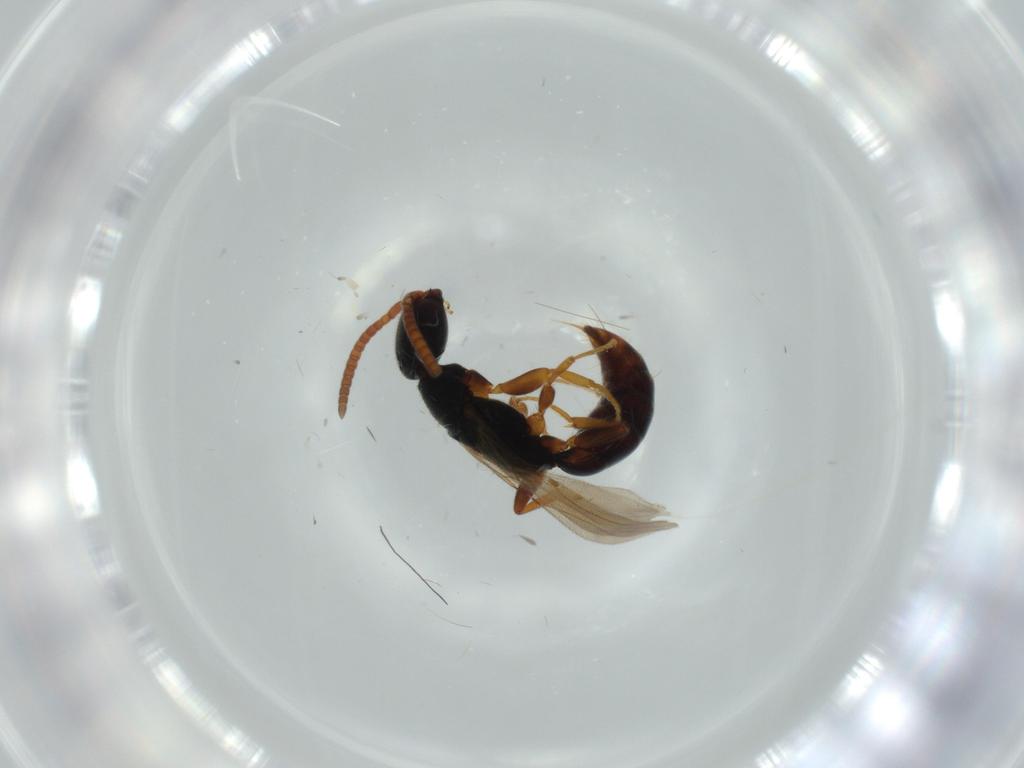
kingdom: Animalia
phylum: Arthropoda
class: Insecta
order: Hymenoptera
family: Bethylidae
